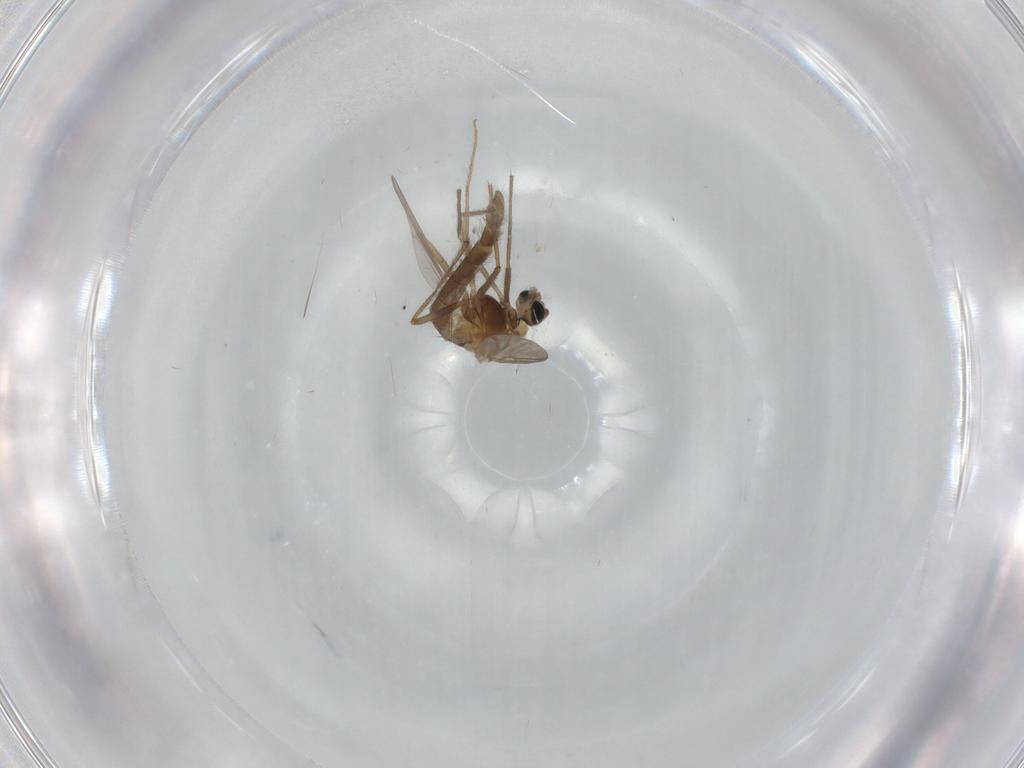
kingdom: Animalia
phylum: Arthropoda
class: Insecta
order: Diptera
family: Chironomidae
